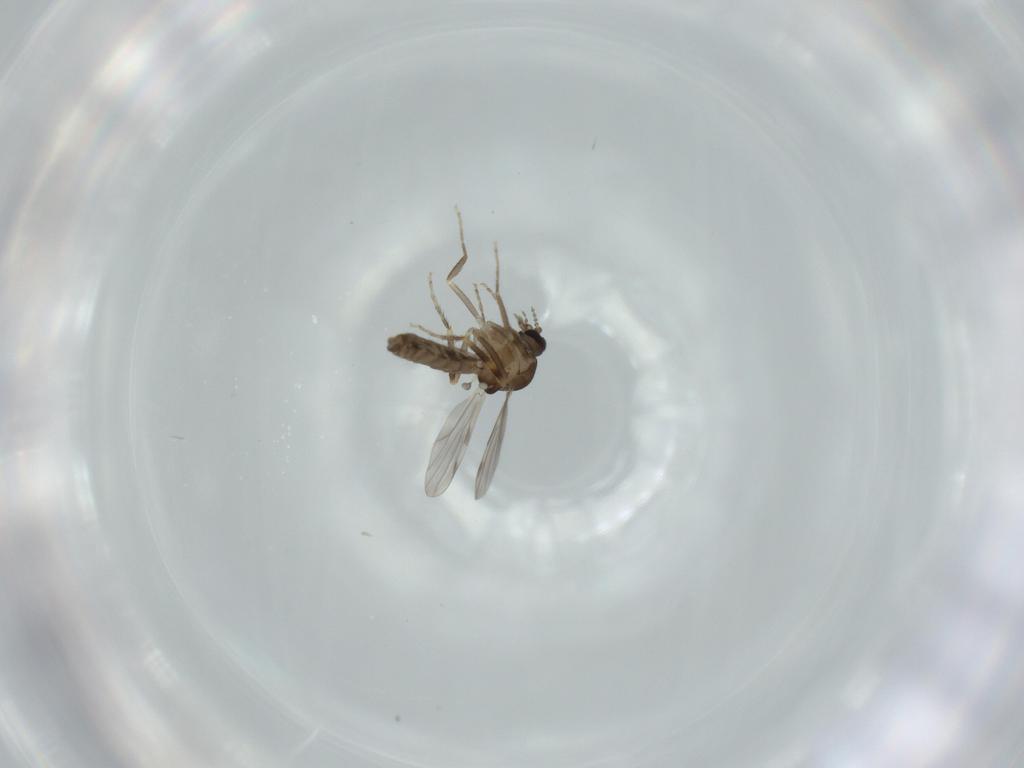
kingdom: Animalia
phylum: Arthropoda
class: Insecta
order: Diptera
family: Ceratopogonidae
